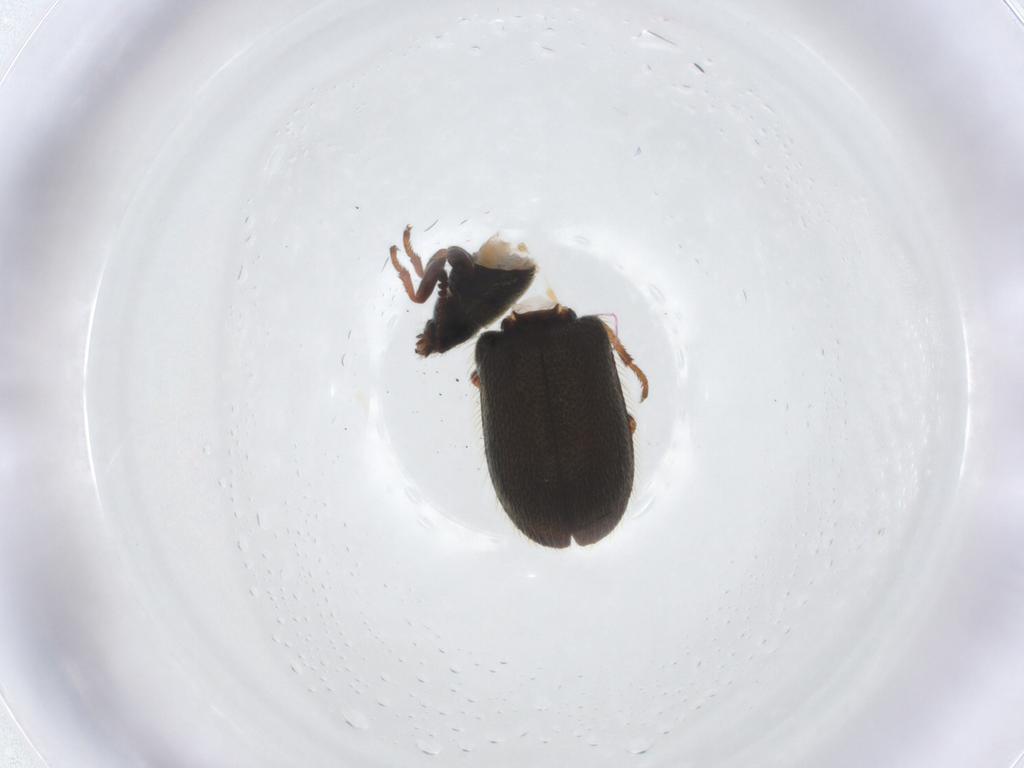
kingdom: Animalia
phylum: Arthropoda
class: Insecta
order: Coleoptera
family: Melyridae
